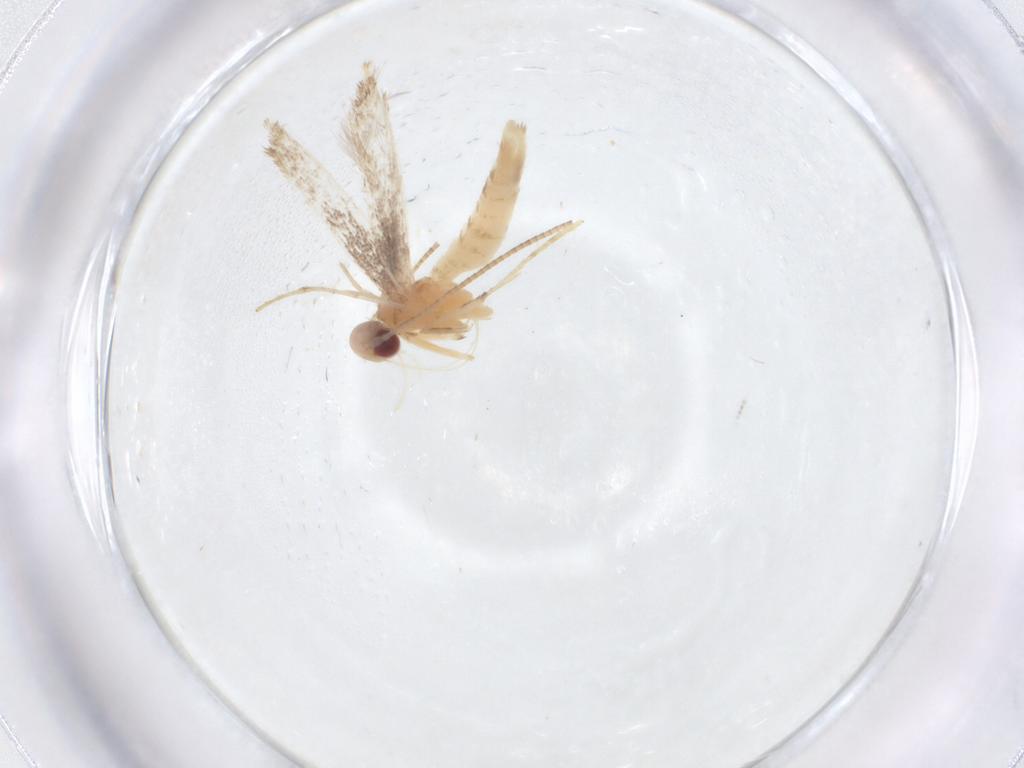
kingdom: Animalia
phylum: Arthropoda
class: Insecta
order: Lepidoptera
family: Gracillariidae
